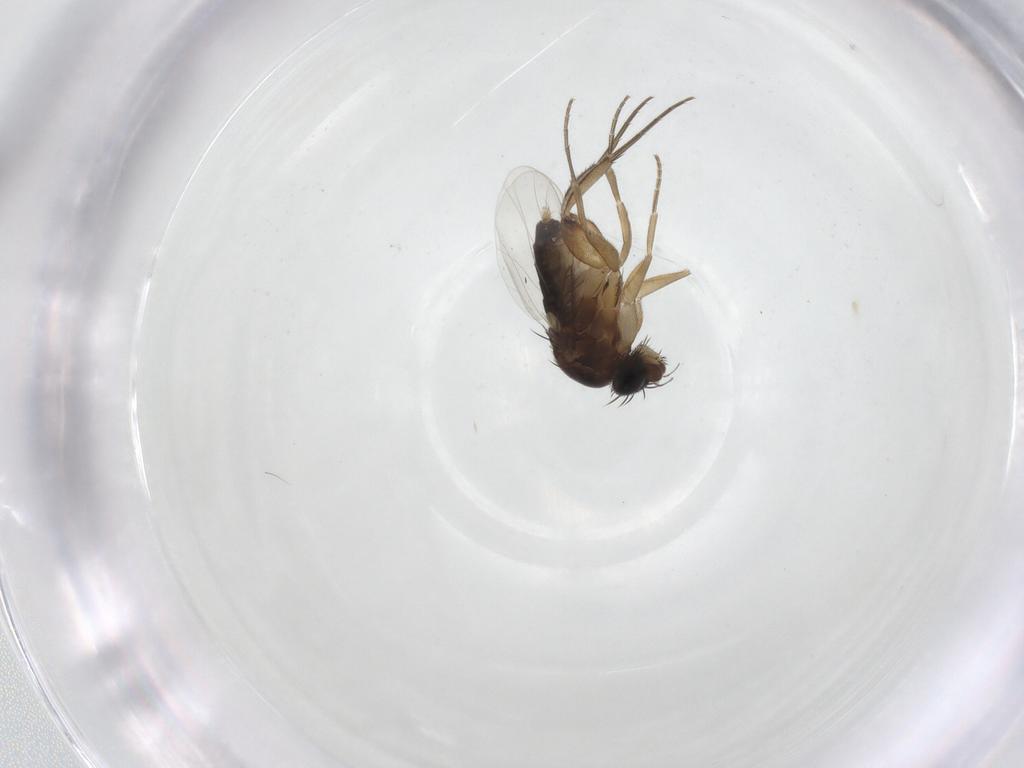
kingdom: Animalia
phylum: Arthropoda
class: Insecta
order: Diptera
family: Phoridae
